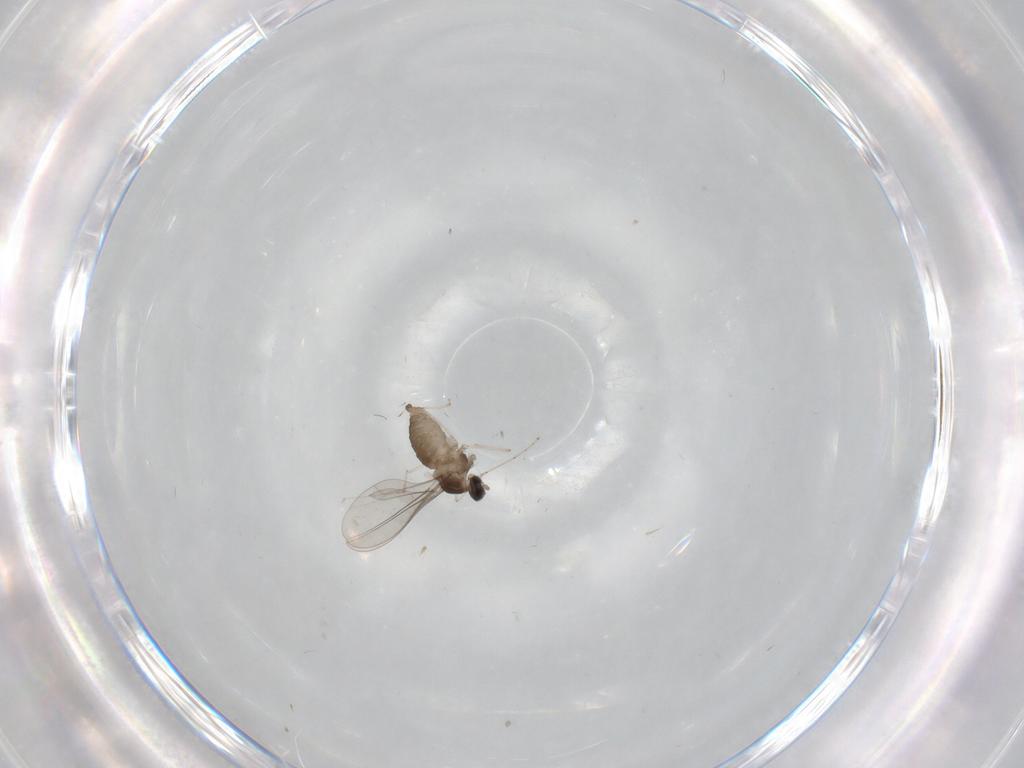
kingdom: Animalia
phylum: Arthropoda
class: Insecta
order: Diptera
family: Cecidomyiidae
